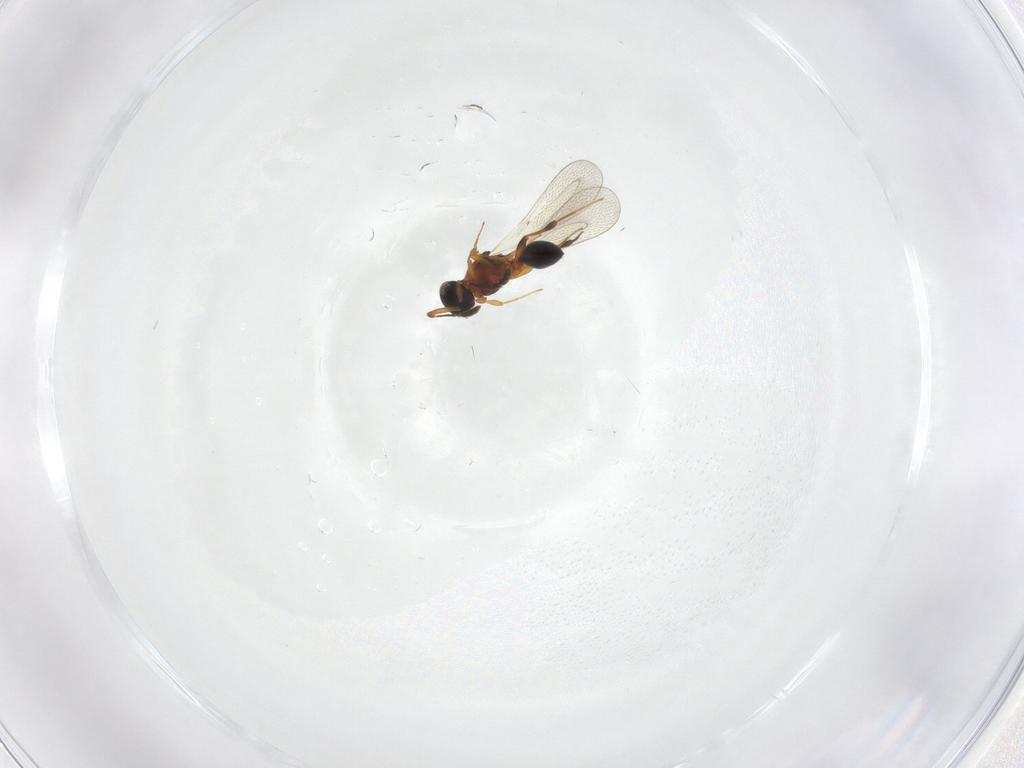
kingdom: Animalia
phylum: Arthropoda
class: Insecta
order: Hymenoptera
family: Platygastridae
